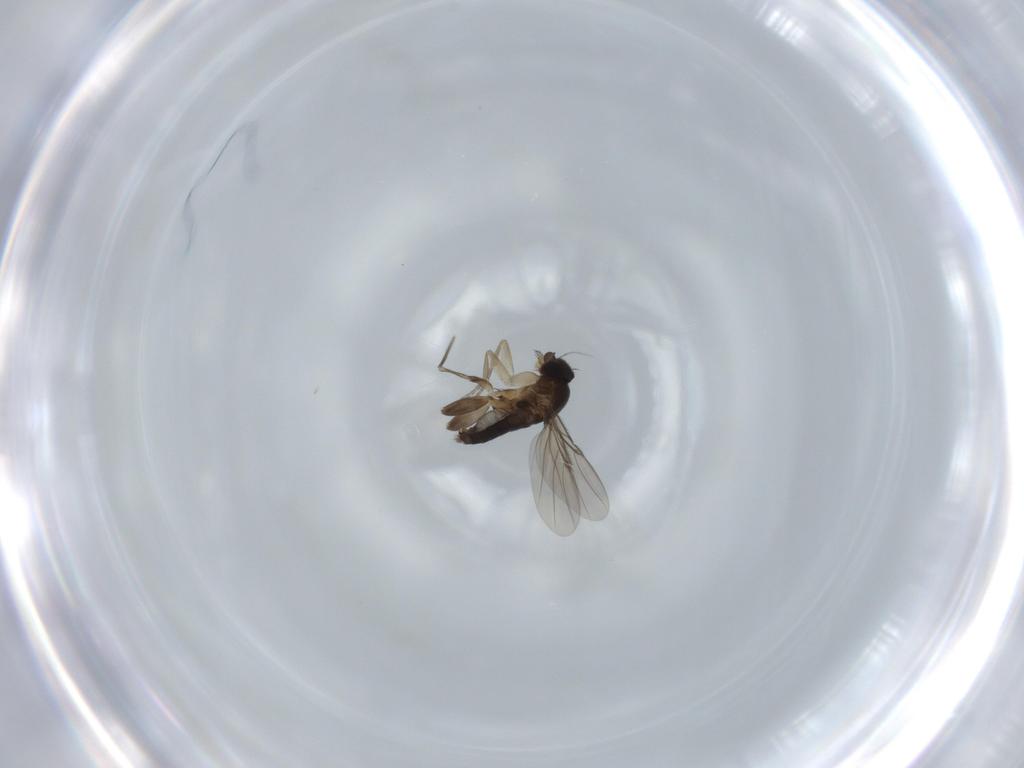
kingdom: Animalia
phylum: Arthropoda
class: Insecta
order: Diptera
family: Phoridae
